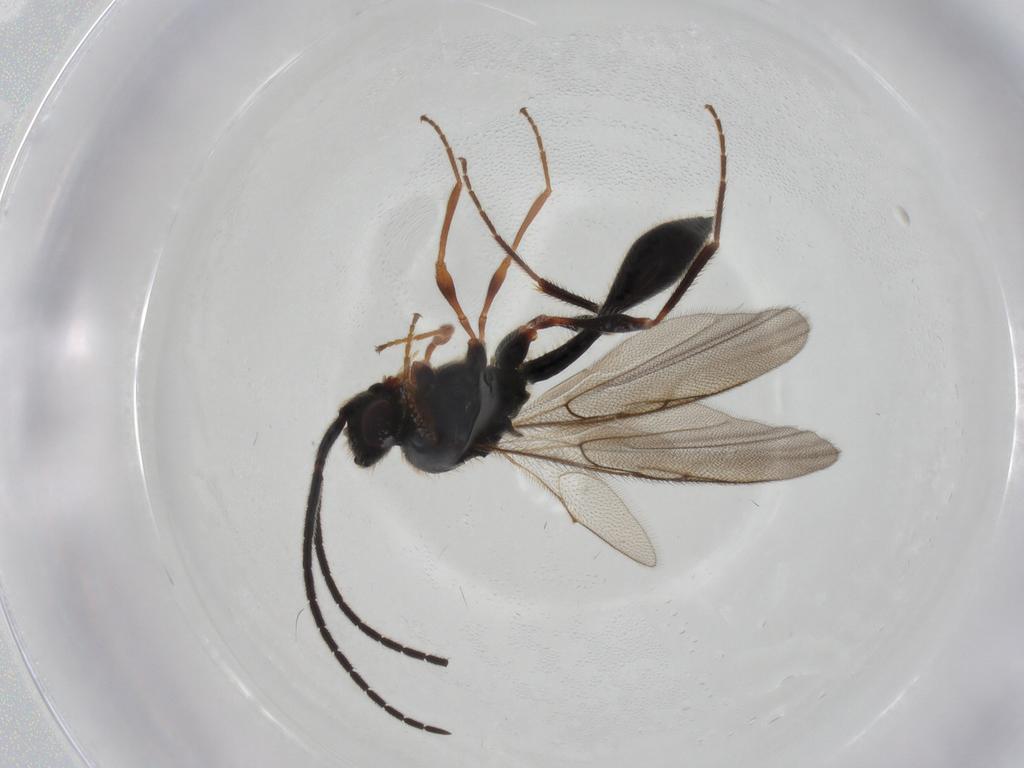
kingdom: Animalia
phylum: Arthropoda
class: Insecta
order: Hymenoptera
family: Diapriidae
